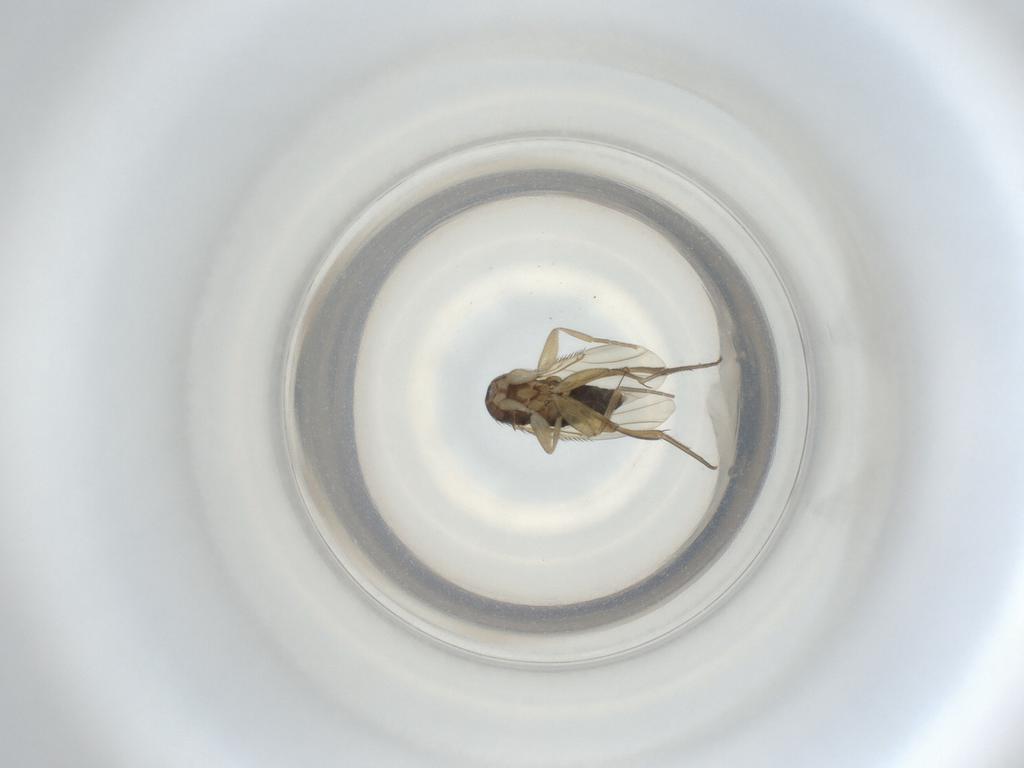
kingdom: Animalia
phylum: Arthropoda
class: Insecta
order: Diptera
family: Phoridae
